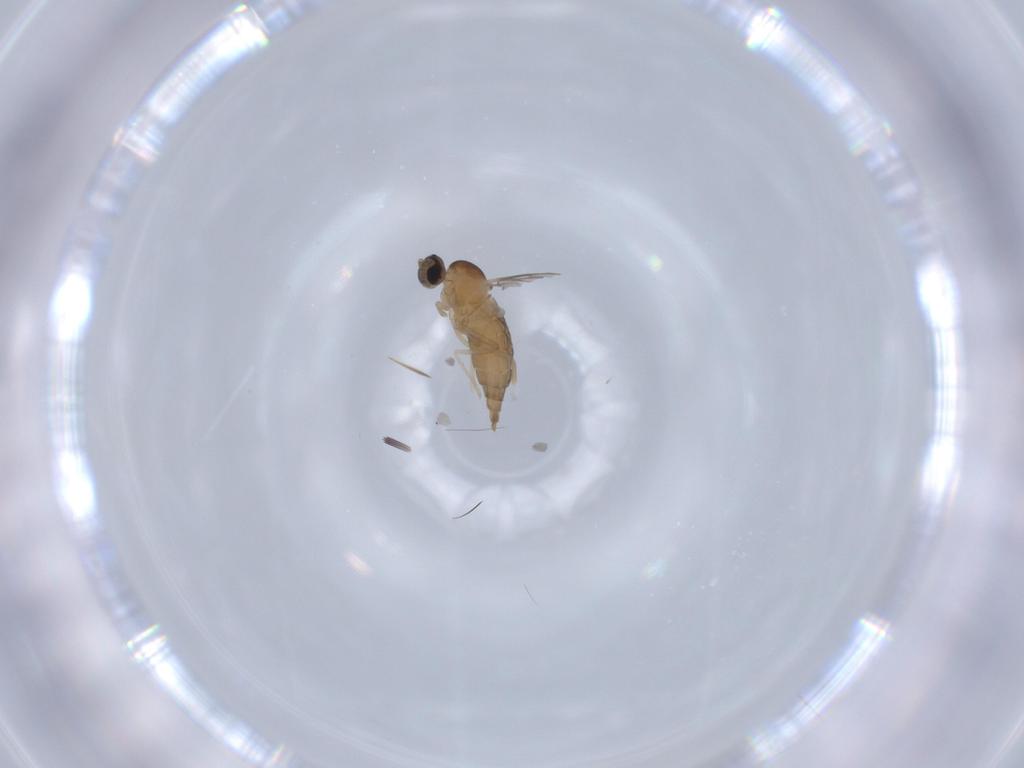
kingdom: Animalia
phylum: Arthropoda
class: Insecta
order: Diptera
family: Cecidomyiidae
